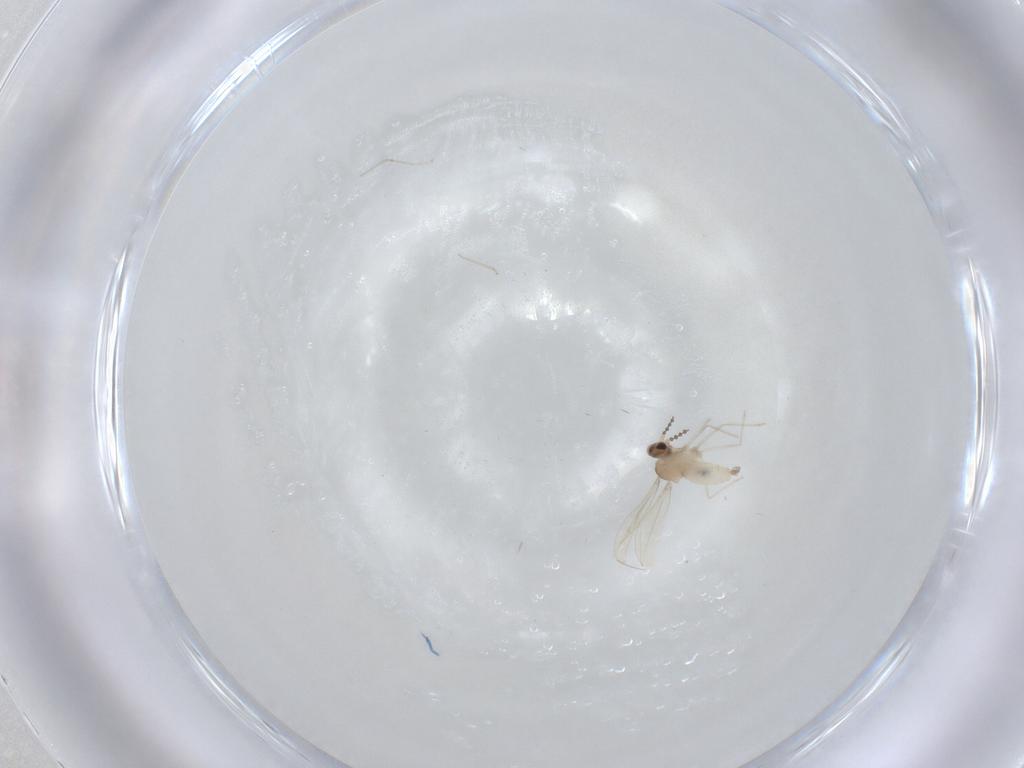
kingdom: Animalia
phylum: Arthropoda
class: Insecta
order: Diptera
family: Cecidomyiidae
